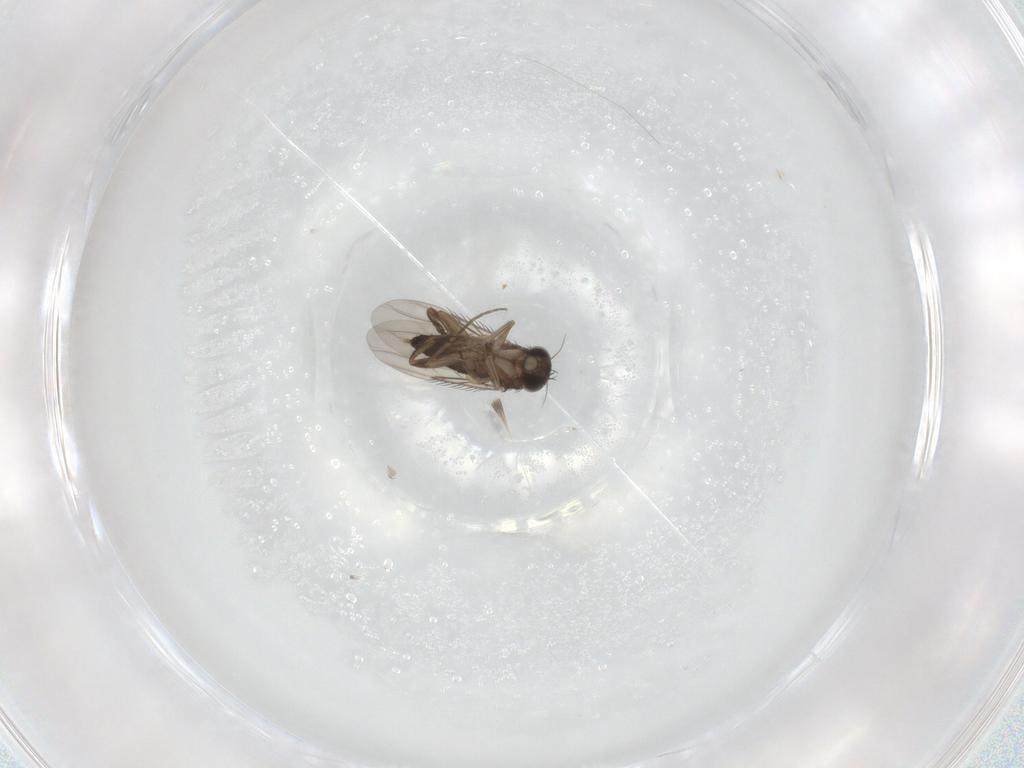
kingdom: Animalia
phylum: Arthropoda
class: Insecta
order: Diptera
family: Phoridae
